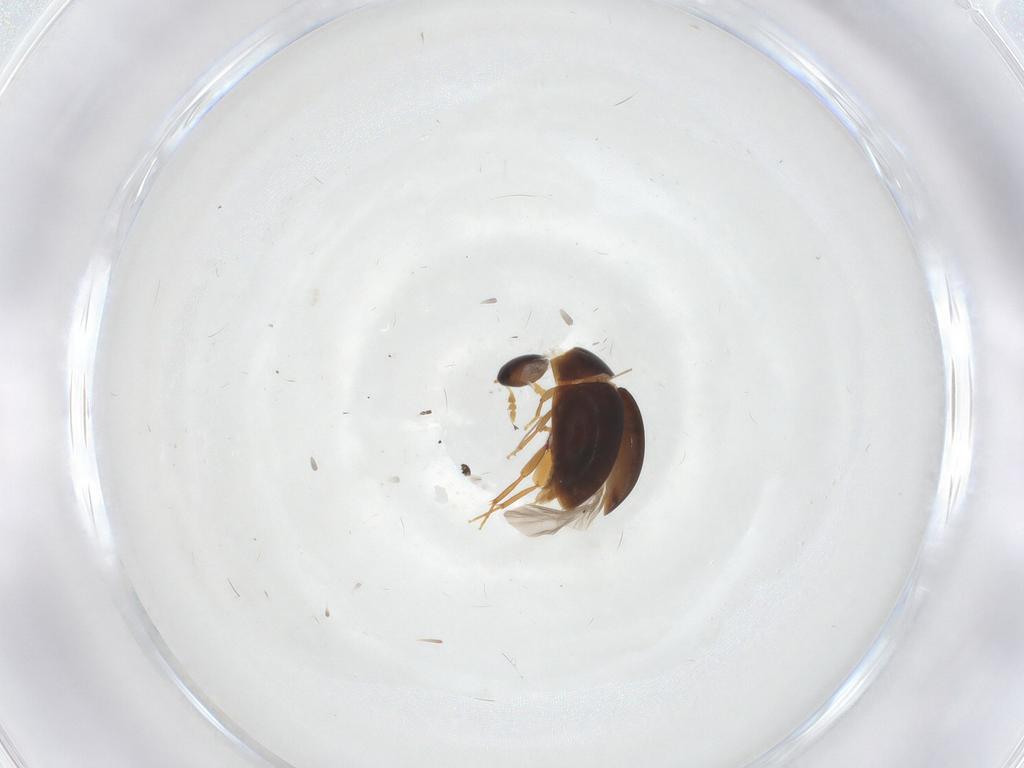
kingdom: Animalia
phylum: Arthropoda
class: Insecta
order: Coleoptera
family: Phalacridae
